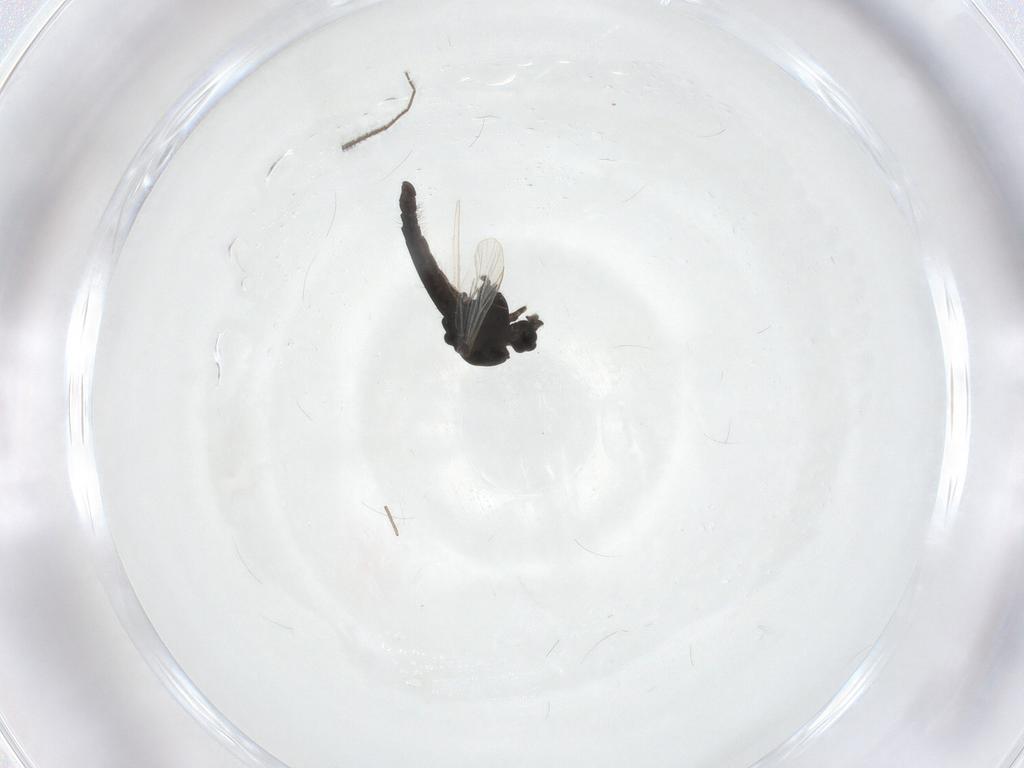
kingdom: Animalia
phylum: Arthropoda
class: Insecta
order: Diptera
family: Chironomidae
